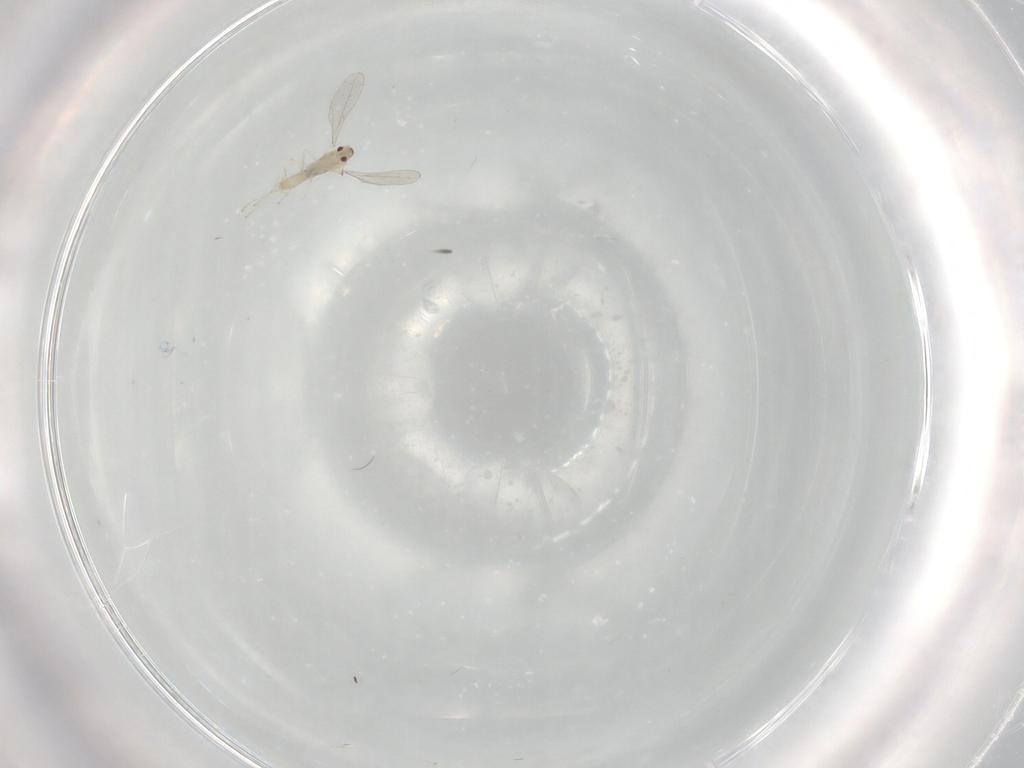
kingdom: Animalia
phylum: Arthropoda
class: Insecta
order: Diptera
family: Cecidomyiidae
